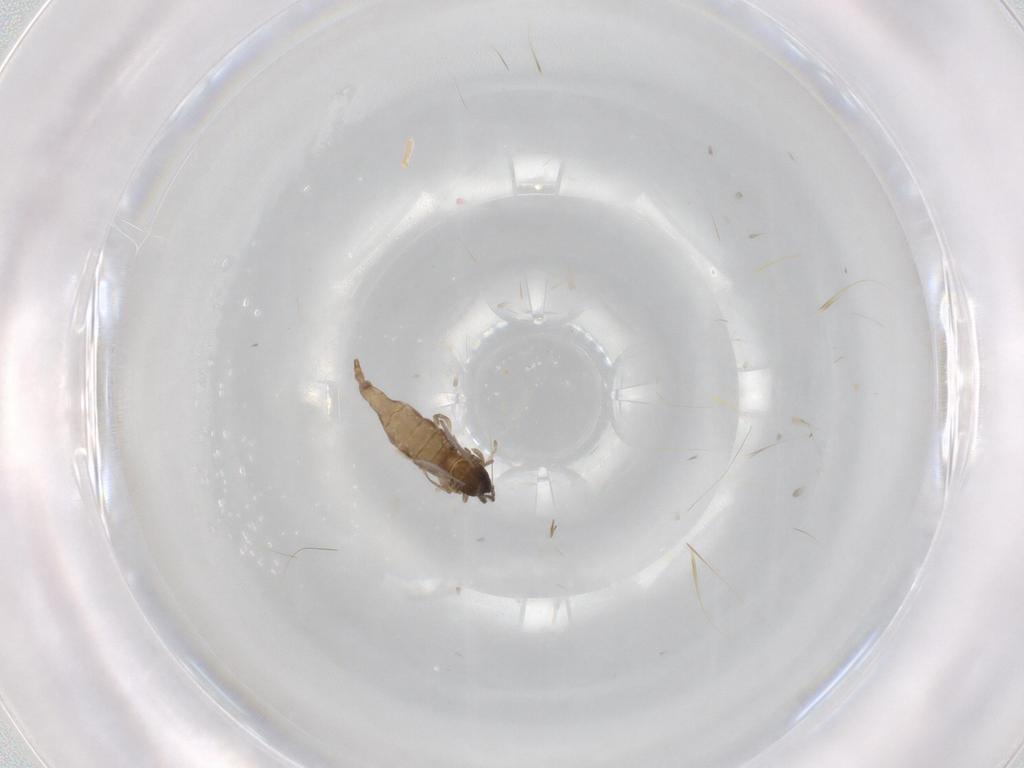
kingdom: Animalia
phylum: Arthropoda
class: Insecta
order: Diptera
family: Cecidomyiidae
